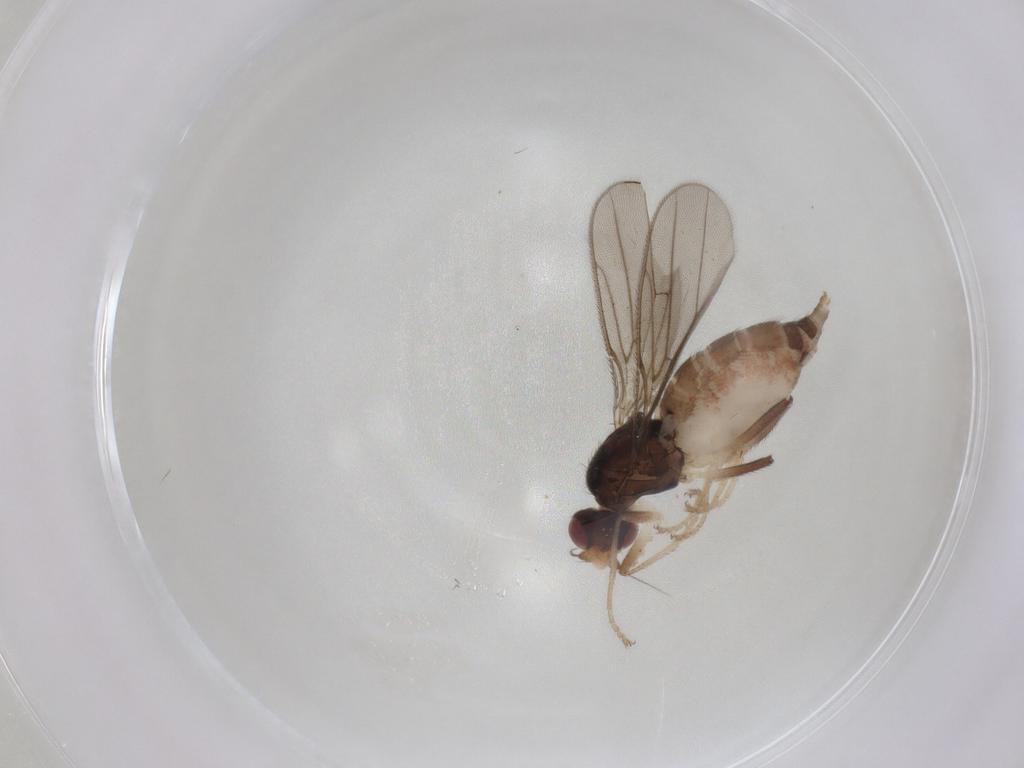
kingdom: Animalia
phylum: Arthropoda
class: Insecta
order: Diptera
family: Chloropidae
